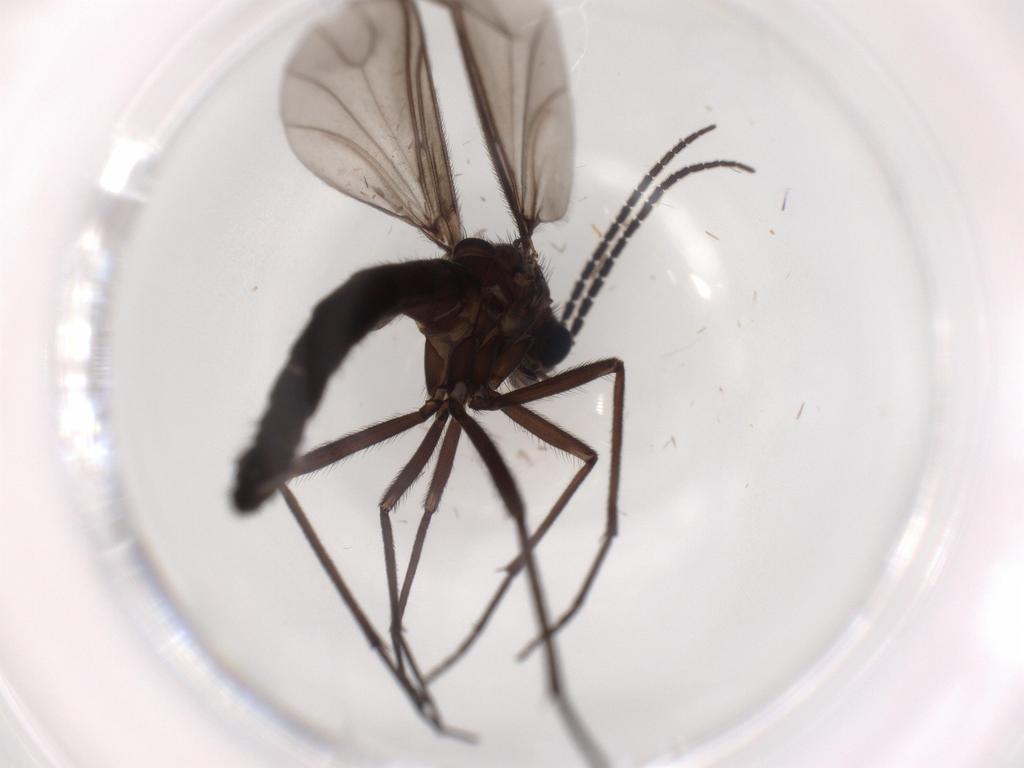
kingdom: Animalia
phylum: Arthropoda
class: Insecta
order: Diptera
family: Sciaridae
